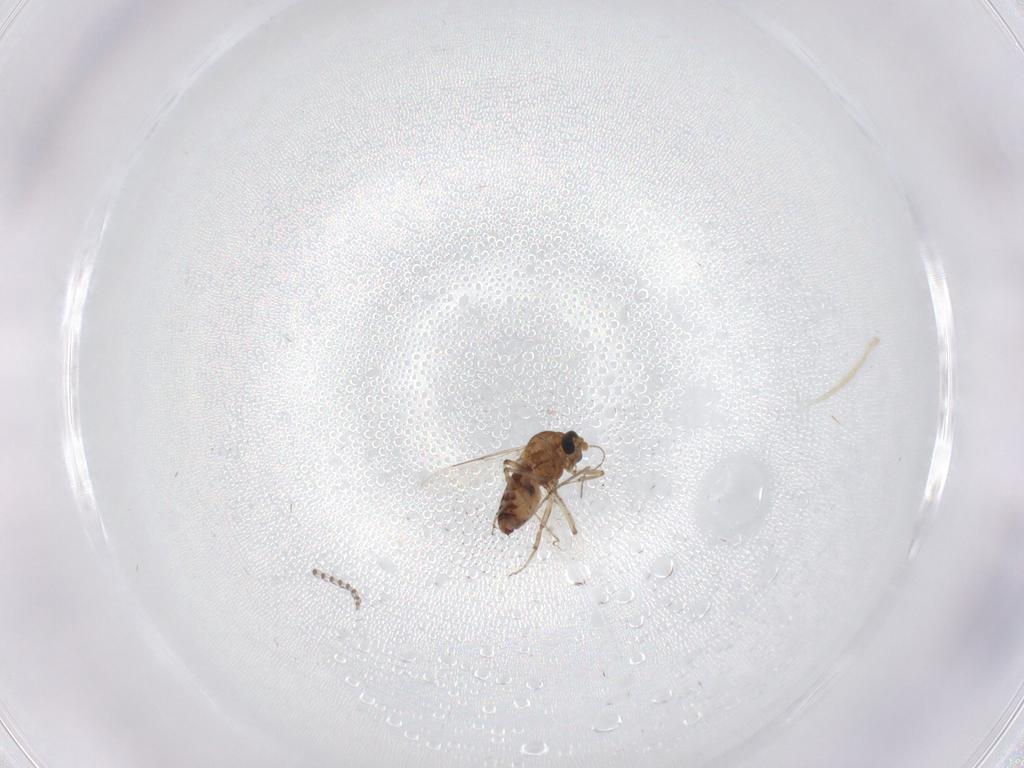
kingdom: Animalia
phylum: Arthropoda
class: Insecta
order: Diptera
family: Ceratopogonidae
